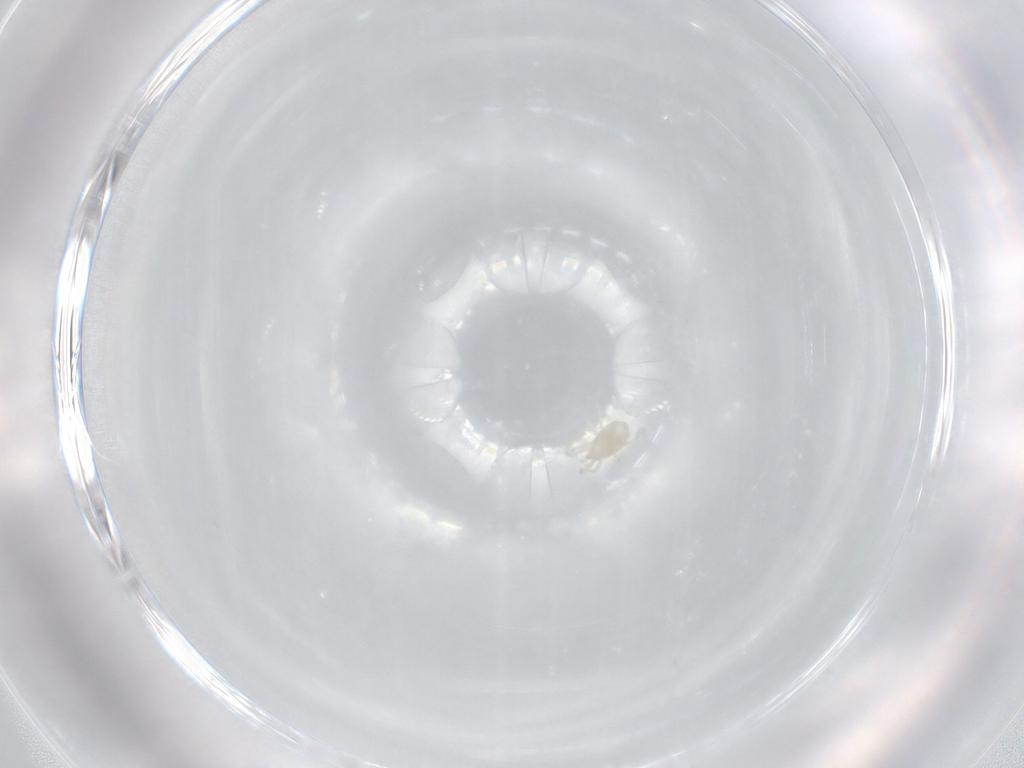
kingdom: Animalia
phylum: Arthropoda
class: Arachnida
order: Mesostigmata
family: Phytoseiidae
